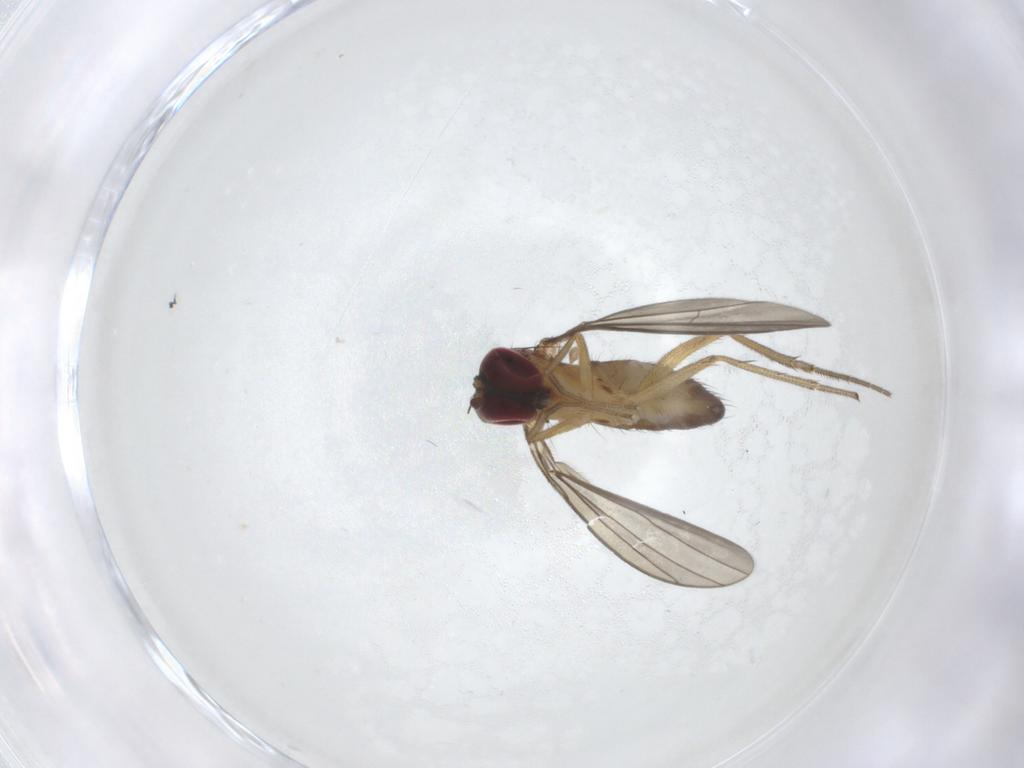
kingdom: Animalia
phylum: Arthropoda
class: Insecta
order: Diptera
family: Dolichopodidae
